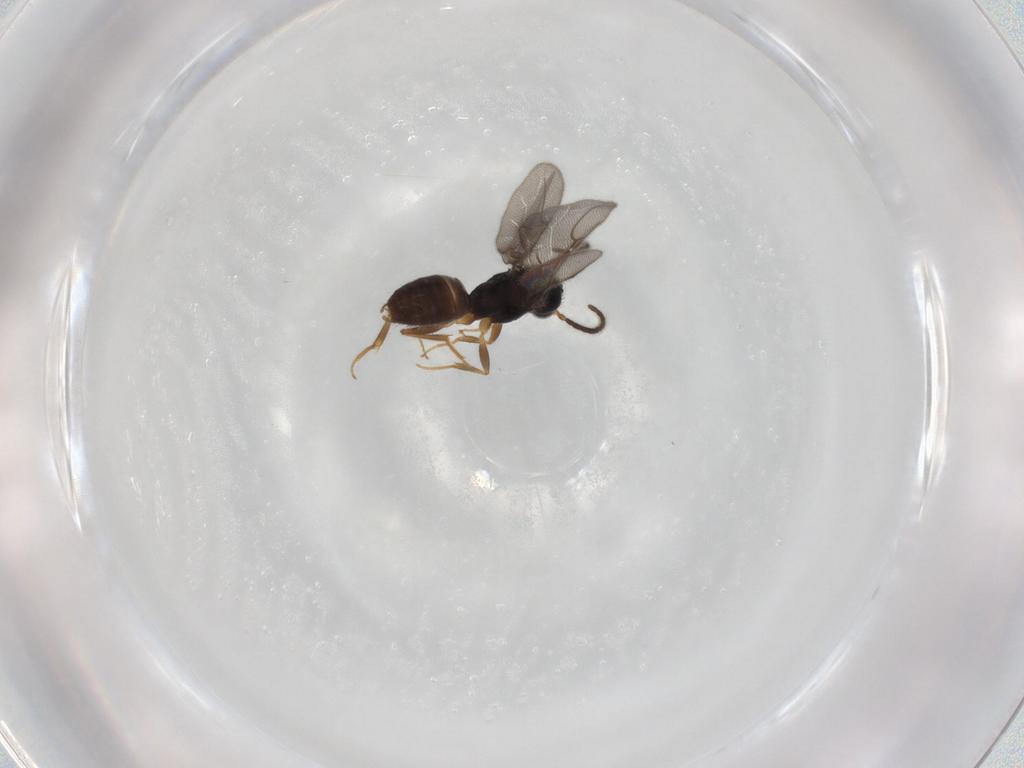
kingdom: Animalia
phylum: Arthropoda
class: Insecta
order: Hymenoptera
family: Bethylidae
